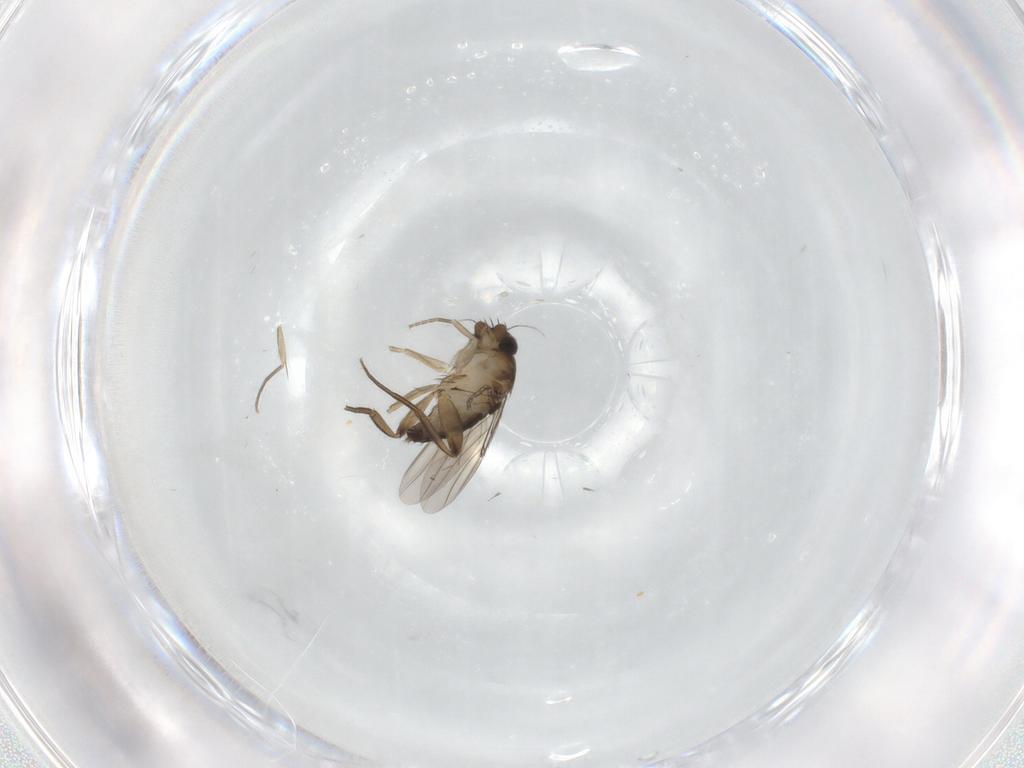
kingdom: Animalia
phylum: Arthropoda
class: Insecta
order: Diptera
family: Phoridae
